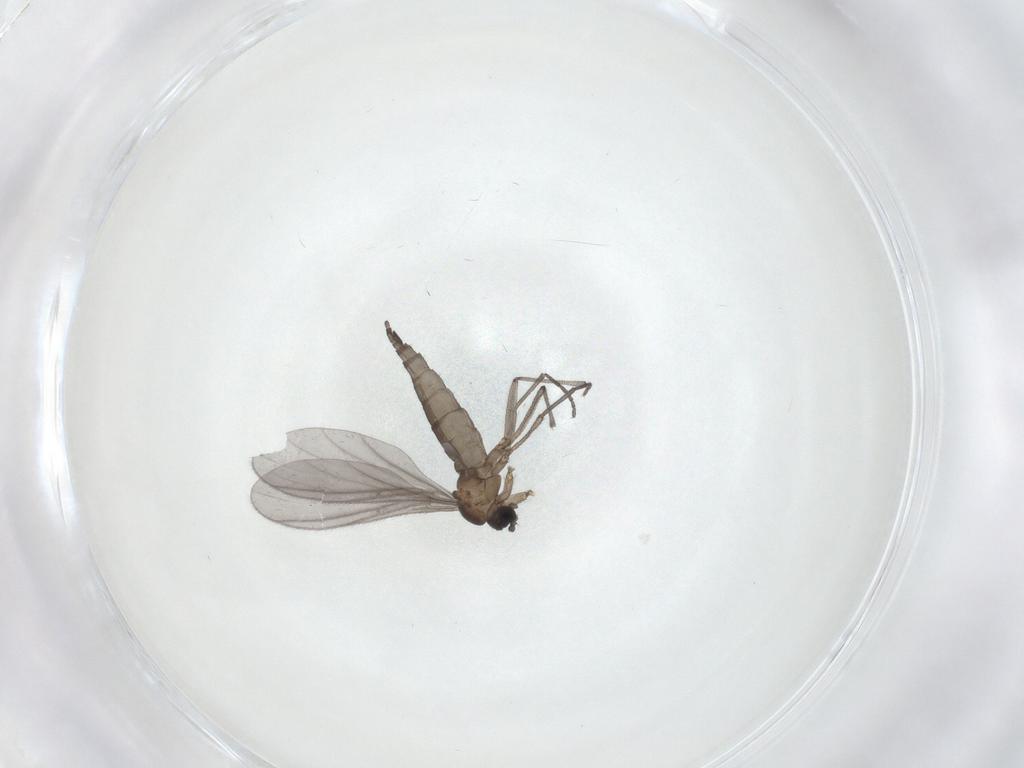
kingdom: Animalia
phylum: Arthropoda
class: Insecta
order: Diptera
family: Sciaridae
